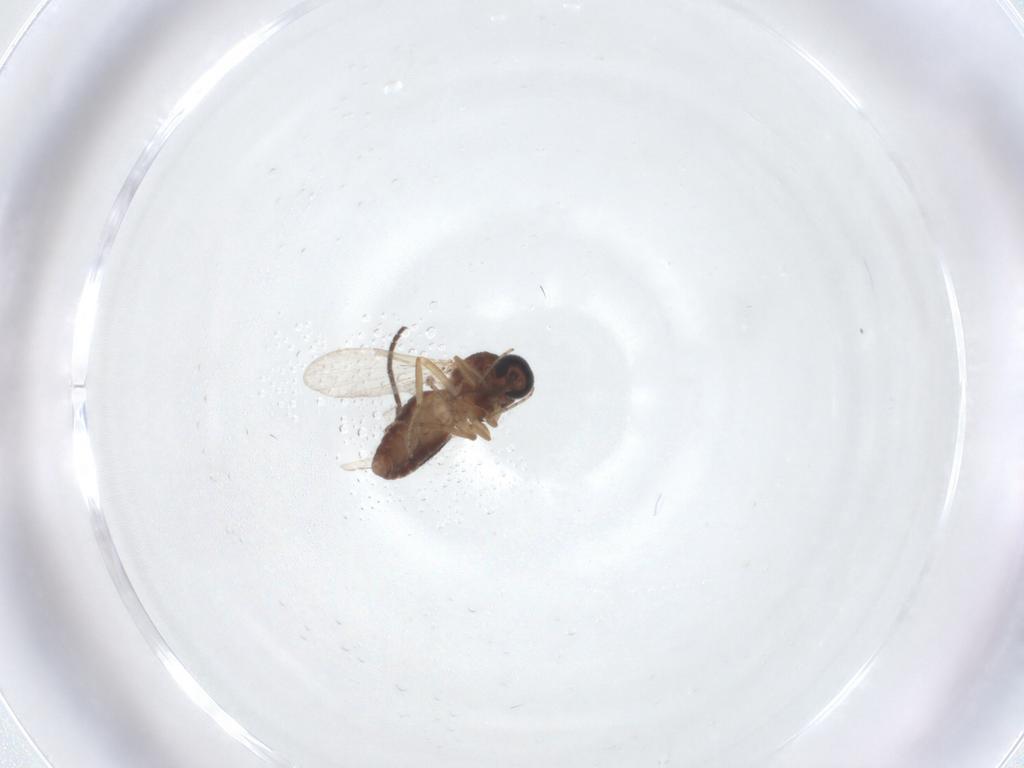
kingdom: Animalia
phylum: Arthropoda
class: Insecta
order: Diptera
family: Ceratopogonidae
